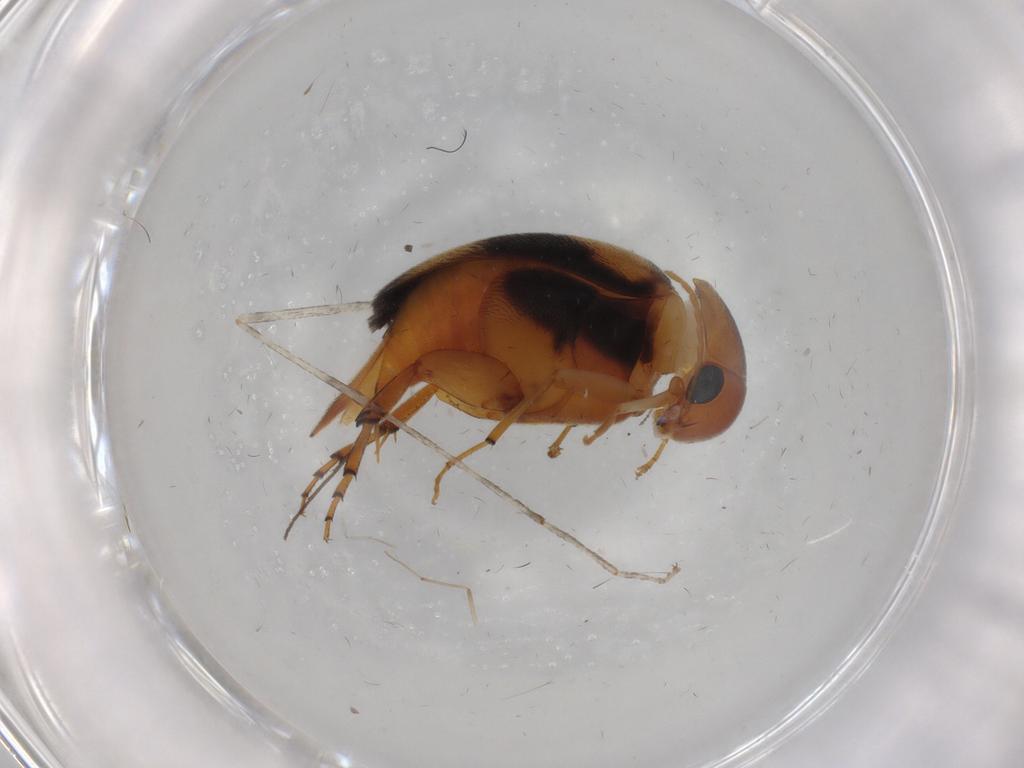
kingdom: Animalia
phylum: Arthropoda
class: Insecta
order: Coleoptera
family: Mordellidae
